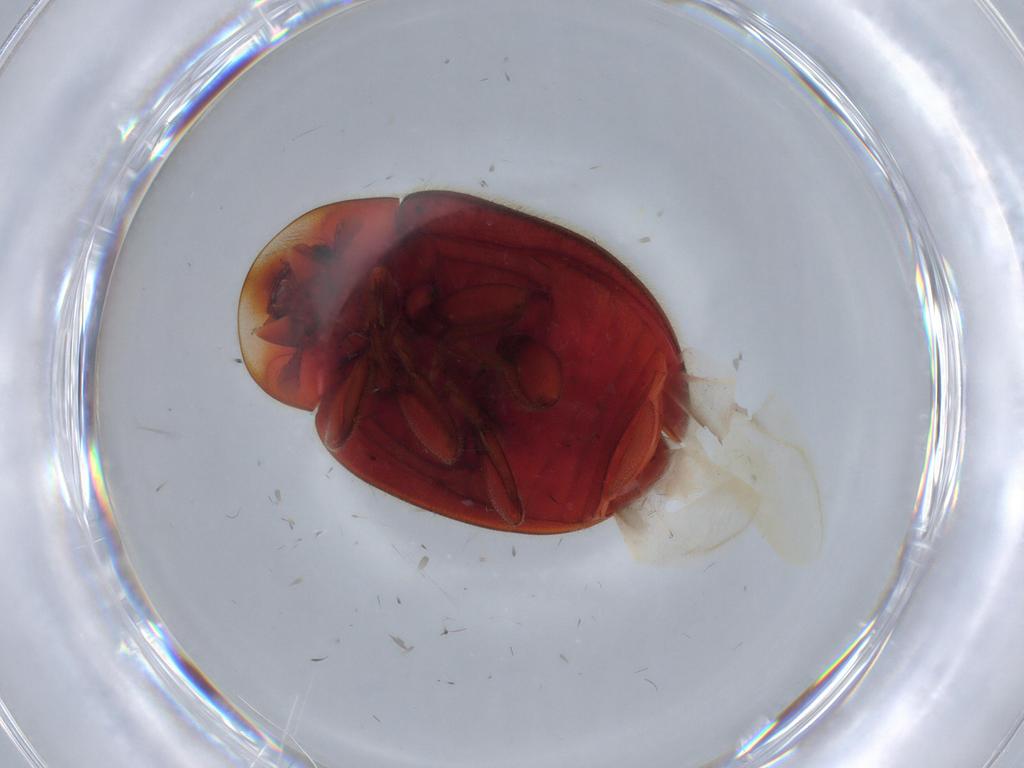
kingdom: Animalia
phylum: Arthropoda
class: Insecta
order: Coleoptera
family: Coccinellidae
